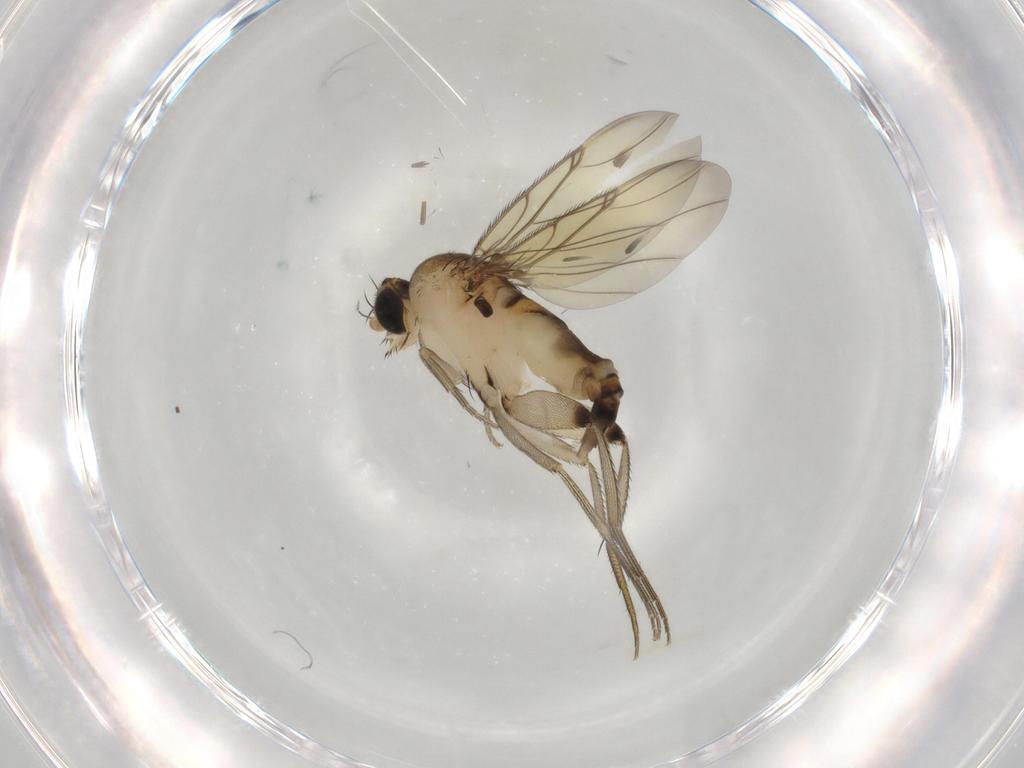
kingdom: Animalia
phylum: Arthropoda
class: Insecta
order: Diptera
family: Phoridae
